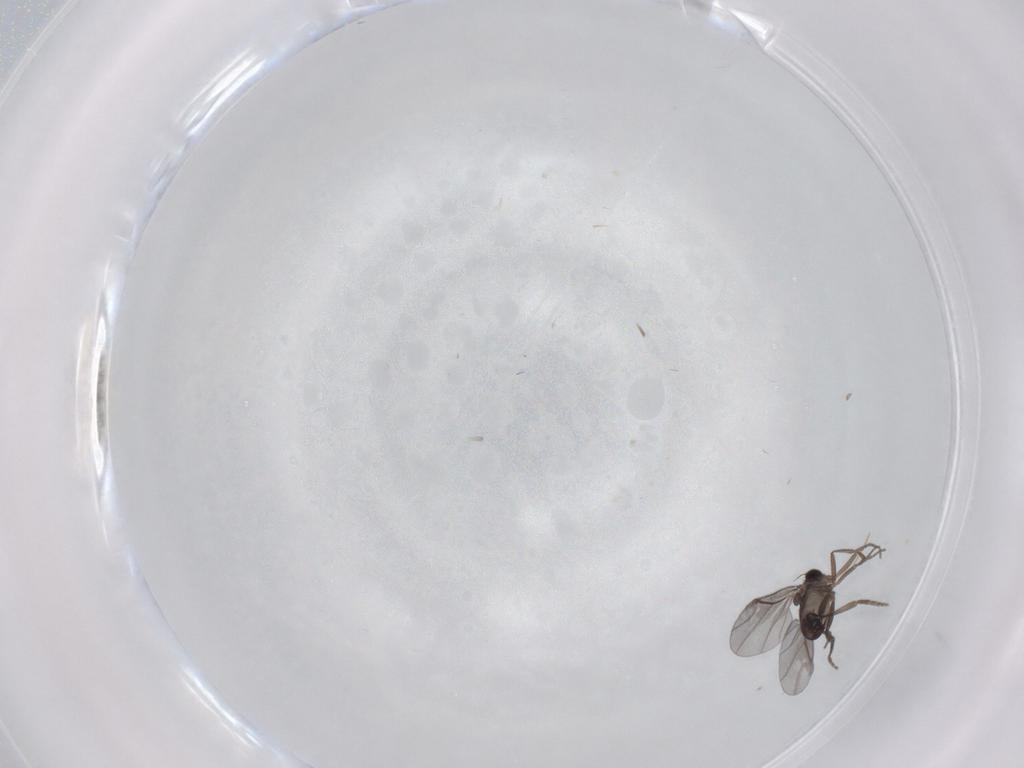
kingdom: Animalia
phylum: Arthropoda
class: Insecta
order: Diptera
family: Phoridae
